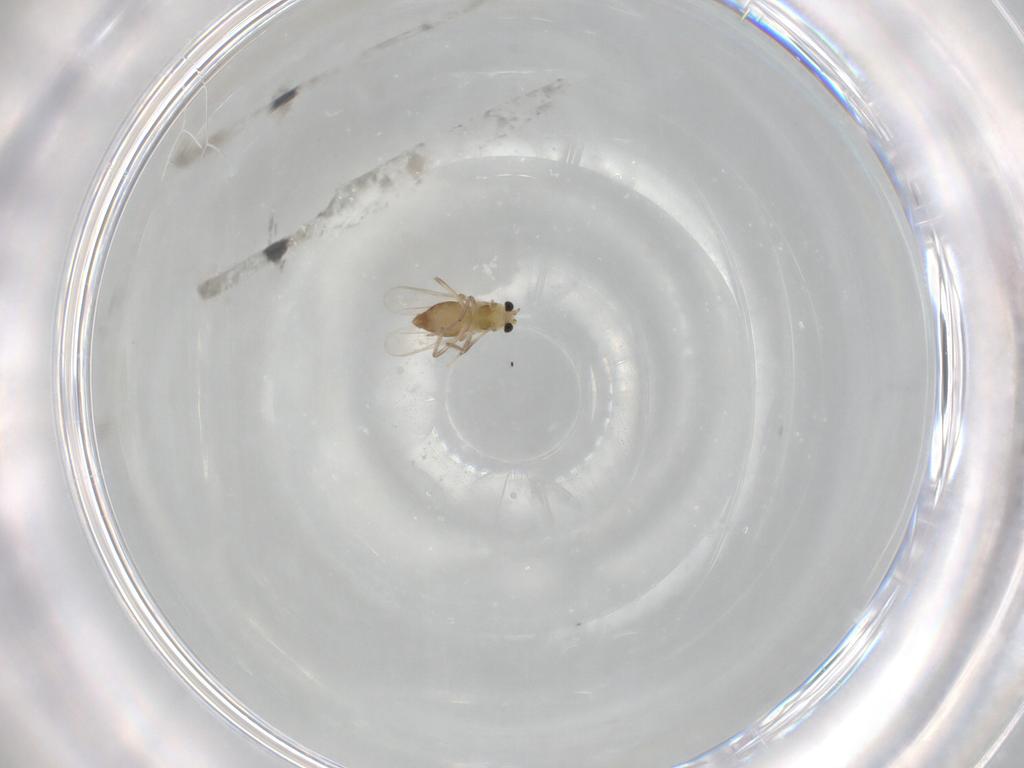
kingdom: Animalia
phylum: Arthropoda
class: Insecta
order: Diptera
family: Chironomidae
